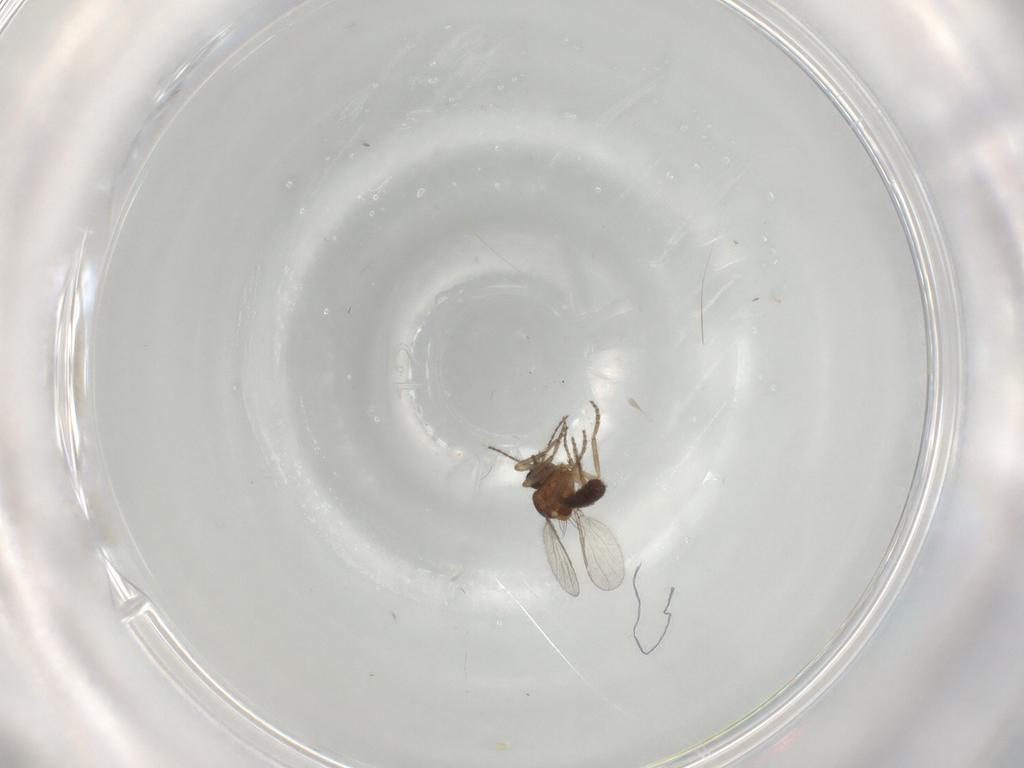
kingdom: Animalia
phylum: Arthropoda
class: Insecta
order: Diptera
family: Ceratopogonidae
